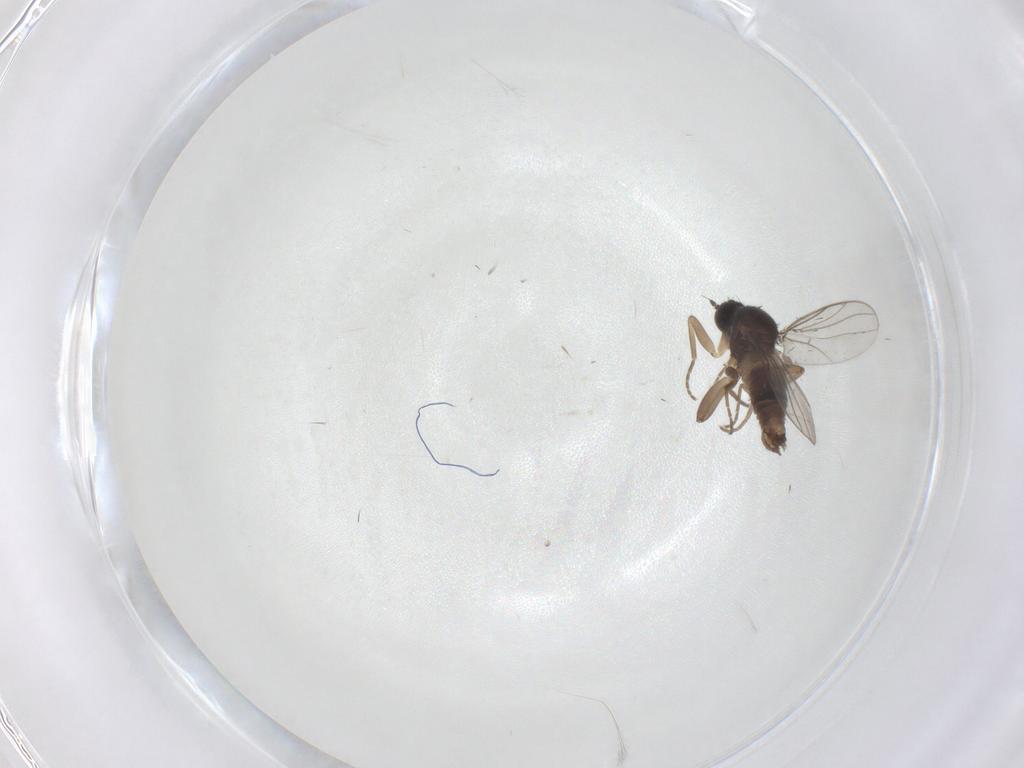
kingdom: Animalia
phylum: Arthropoda
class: Insecta
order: Diptera
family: Hybotidae
